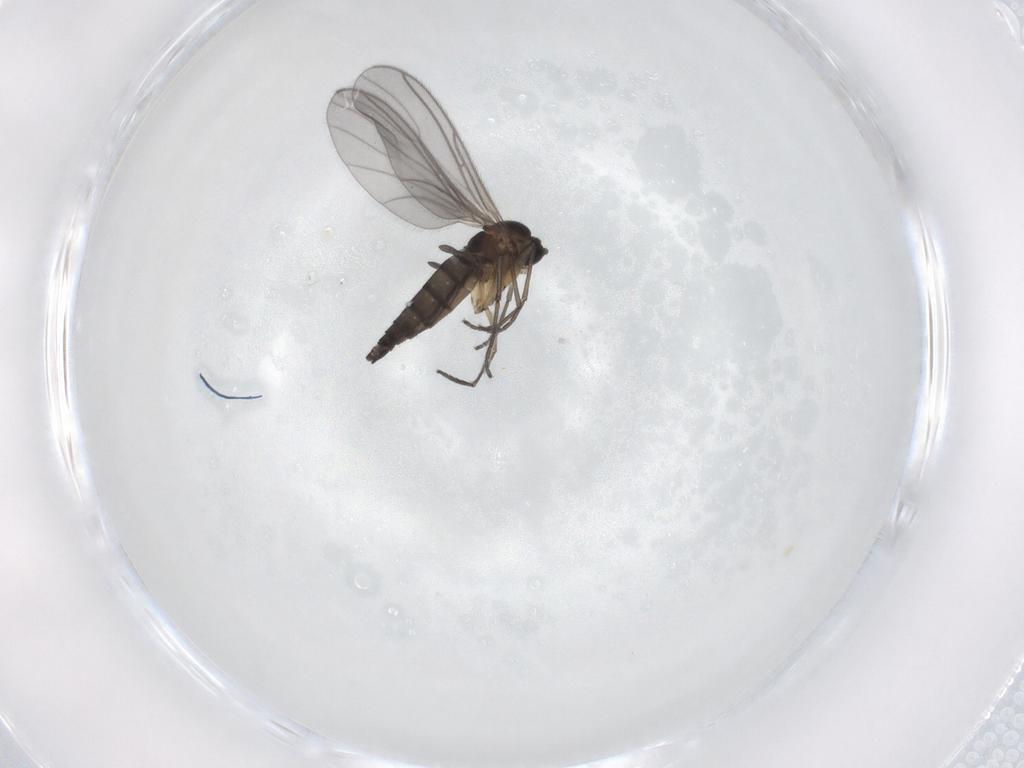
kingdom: Animalia
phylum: Arthropoda
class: Insecta
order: Diptera
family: Sciaridae
